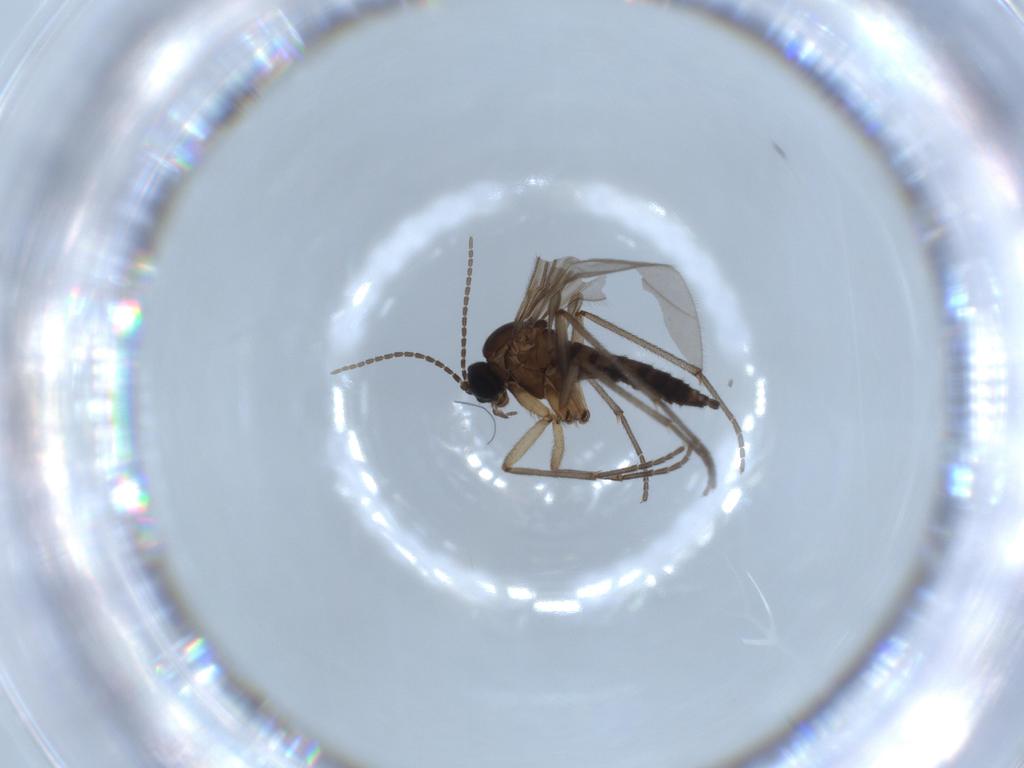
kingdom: Animalia
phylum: Arthropoda
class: Insecta
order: Diptera
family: Sciaridae
